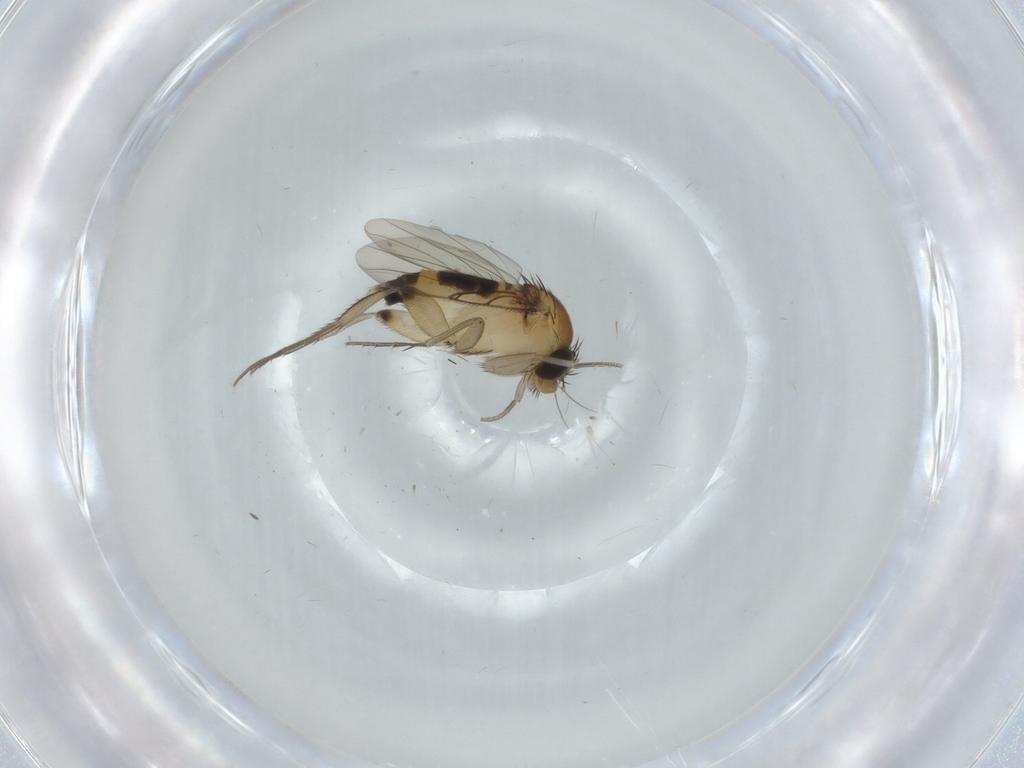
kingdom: Animalia
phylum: Arthropoda
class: Insecta
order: Diptera
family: Phoridae
